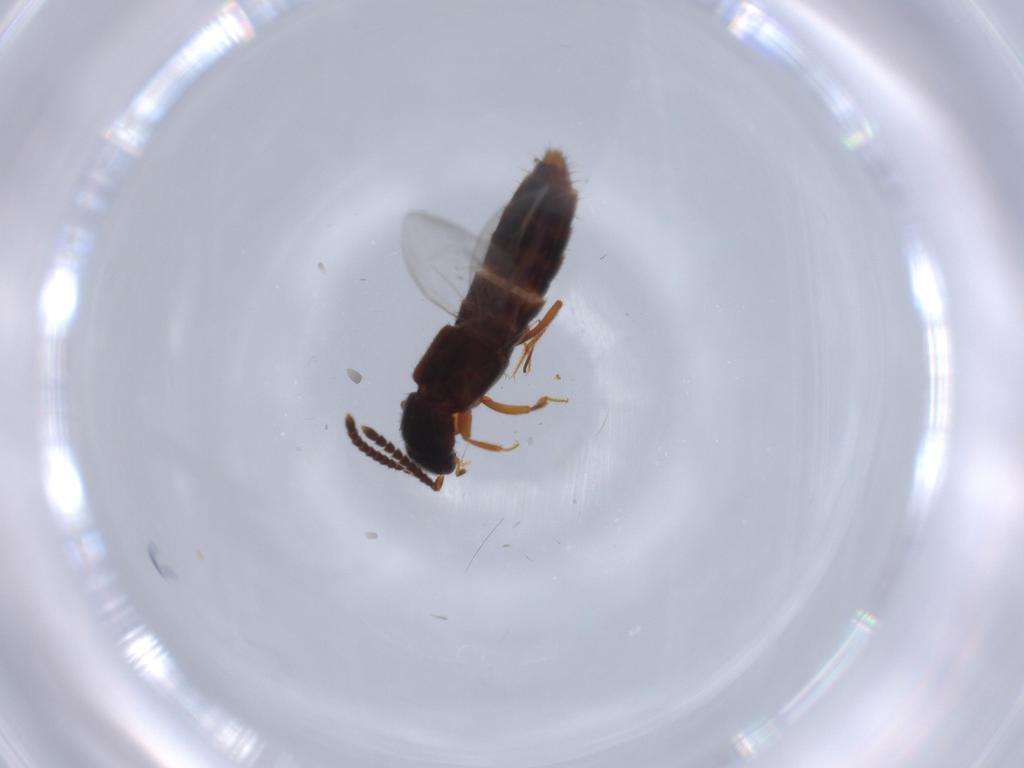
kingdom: Animalia
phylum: Arthropoda
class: Insecta
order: Coleoptera
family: Staphylinidae
